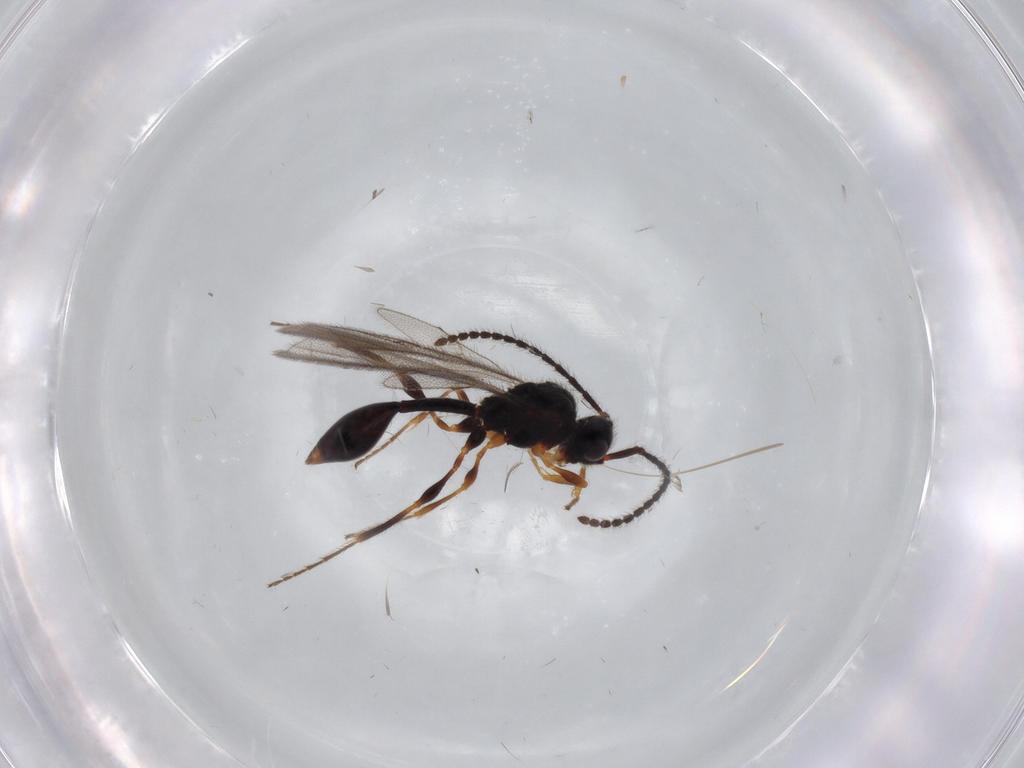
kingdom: Animalia
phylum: Arthropoda
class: Insecta
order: Hymenoptera
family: Diapriidae
